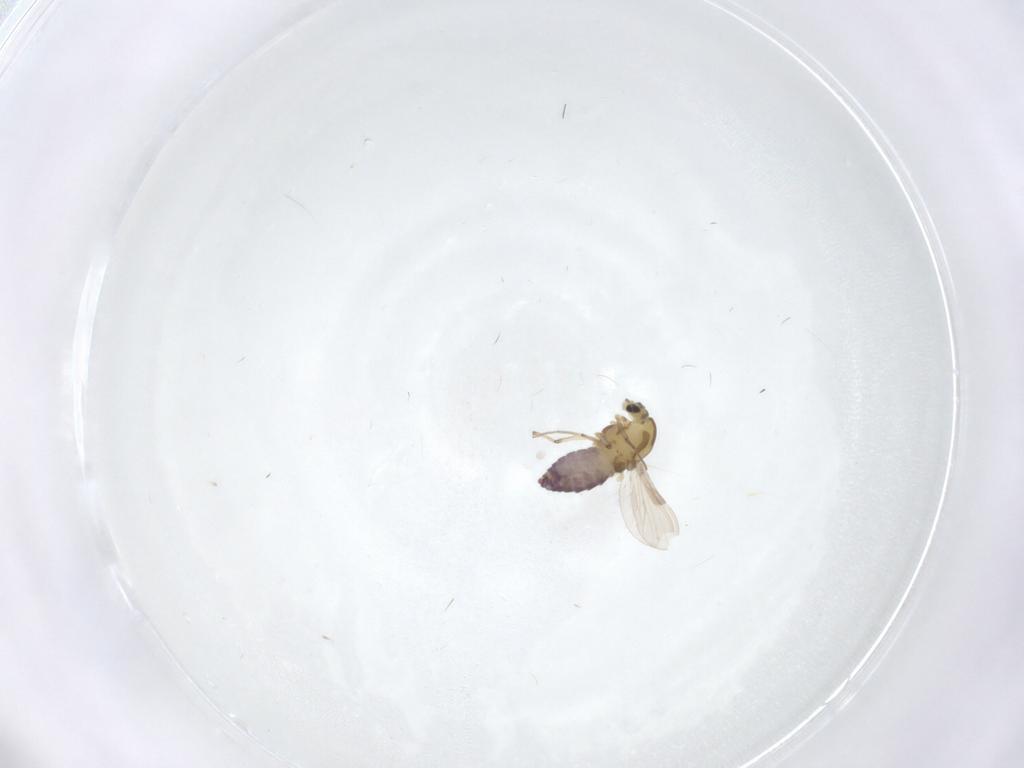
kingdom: Animalia
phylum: Arthropoda
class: Insecta
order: Diptera
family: Chironomidae
